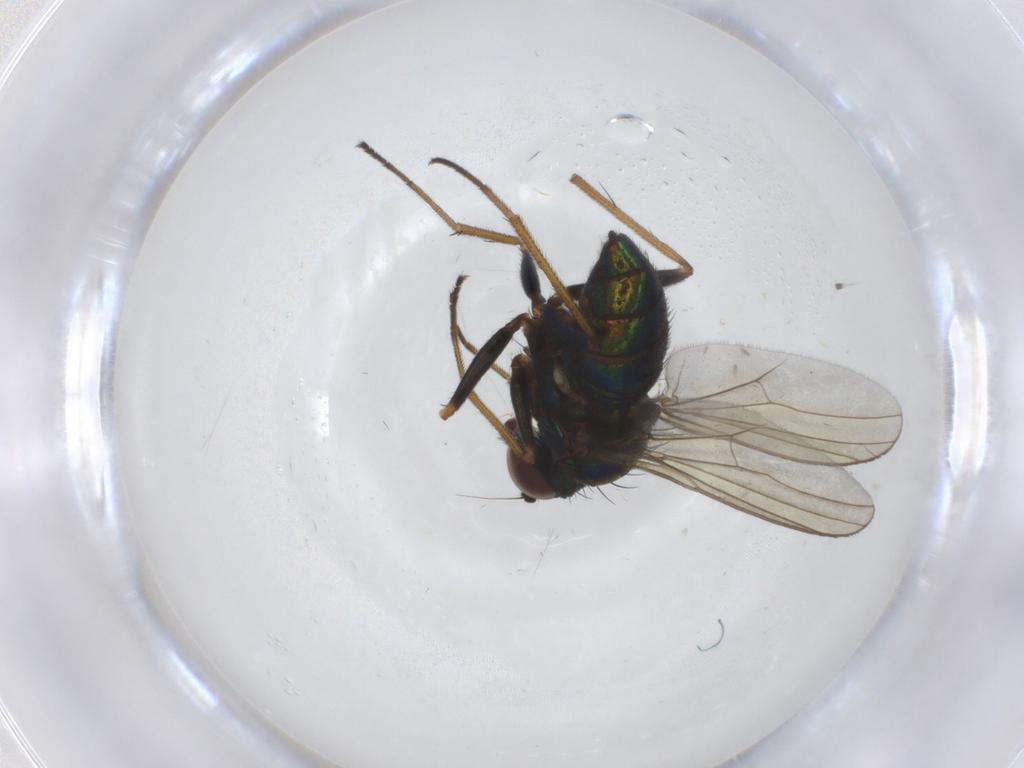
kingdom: Animalia
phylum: Arthropoda
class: Insecta
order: Diptera
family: Dolichopodidae
